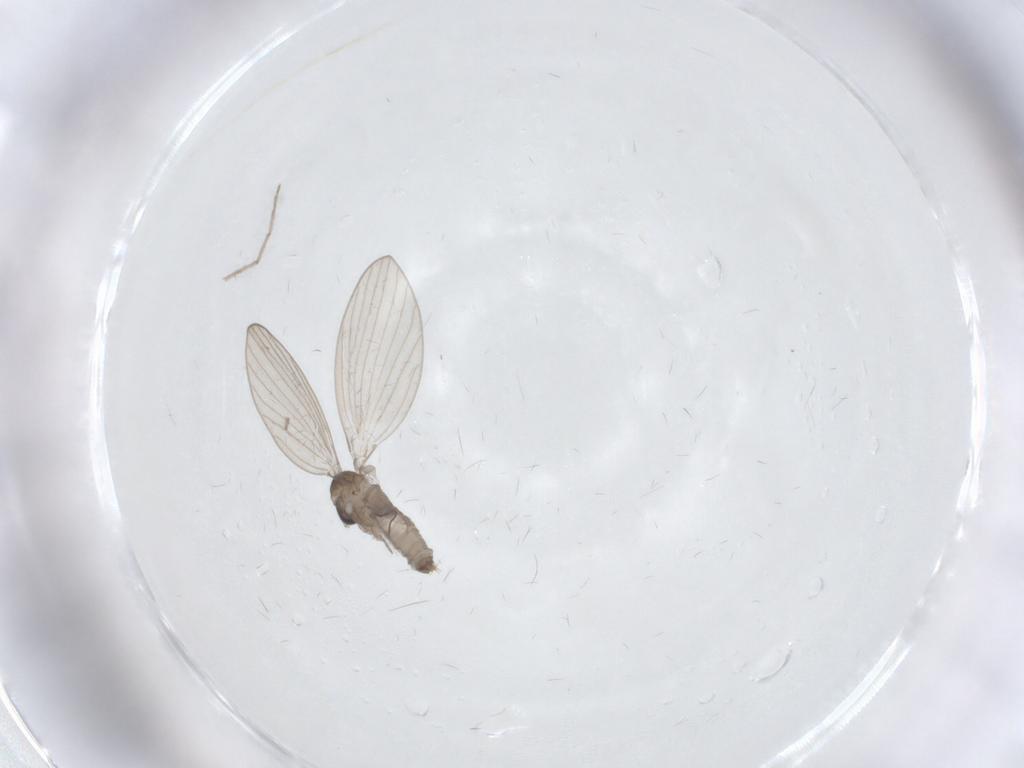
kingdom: Animalia
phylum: Arthropoda
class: Insecta
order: Diptera
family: Chironomidae
